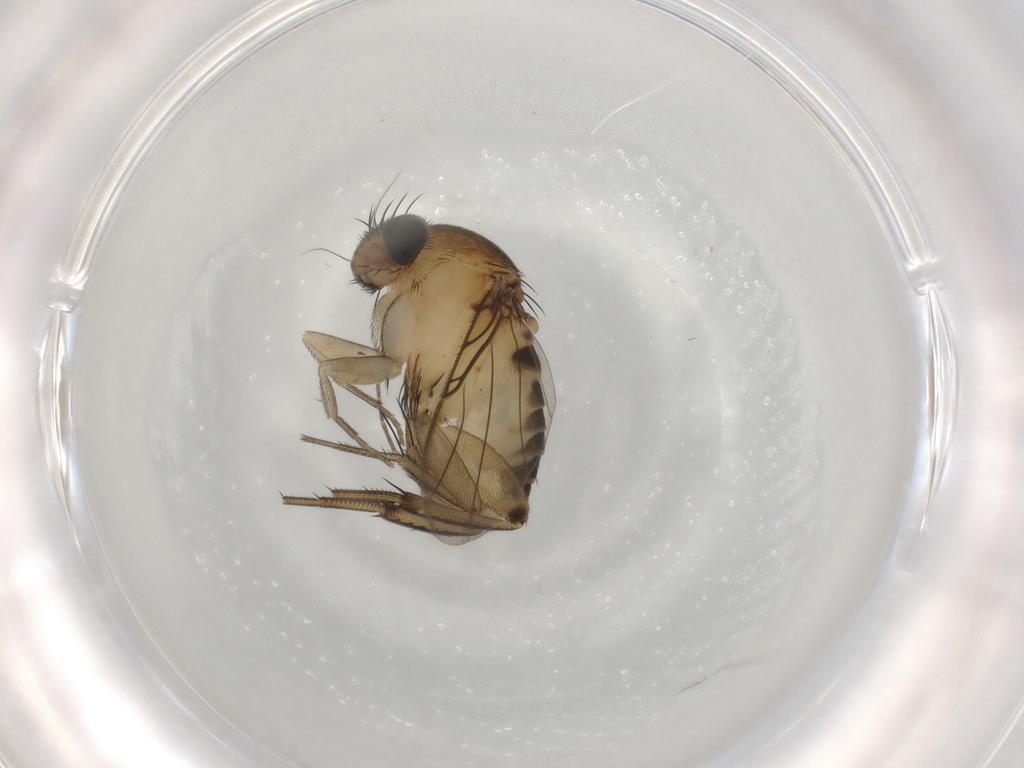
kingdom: Animalia
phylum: Arthropoda
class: Insecta
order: Diptera
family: Phoridae
